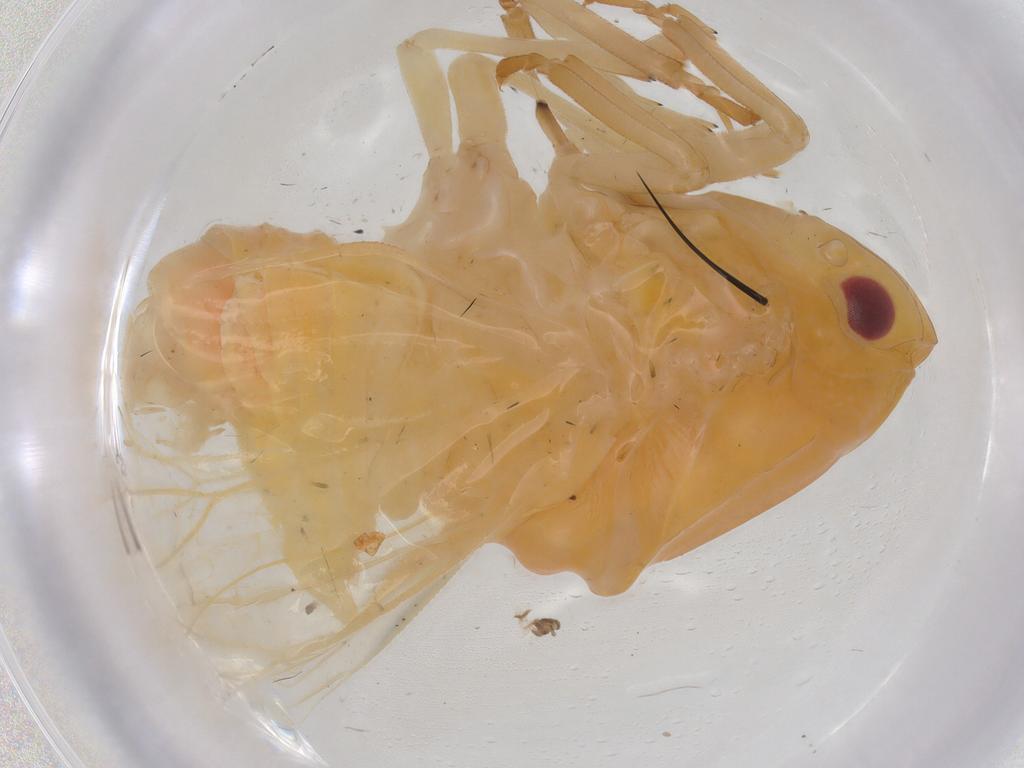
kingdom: Animalia
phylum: Arthropoda
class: Insecta
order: Hemiptera
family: Flatidae
